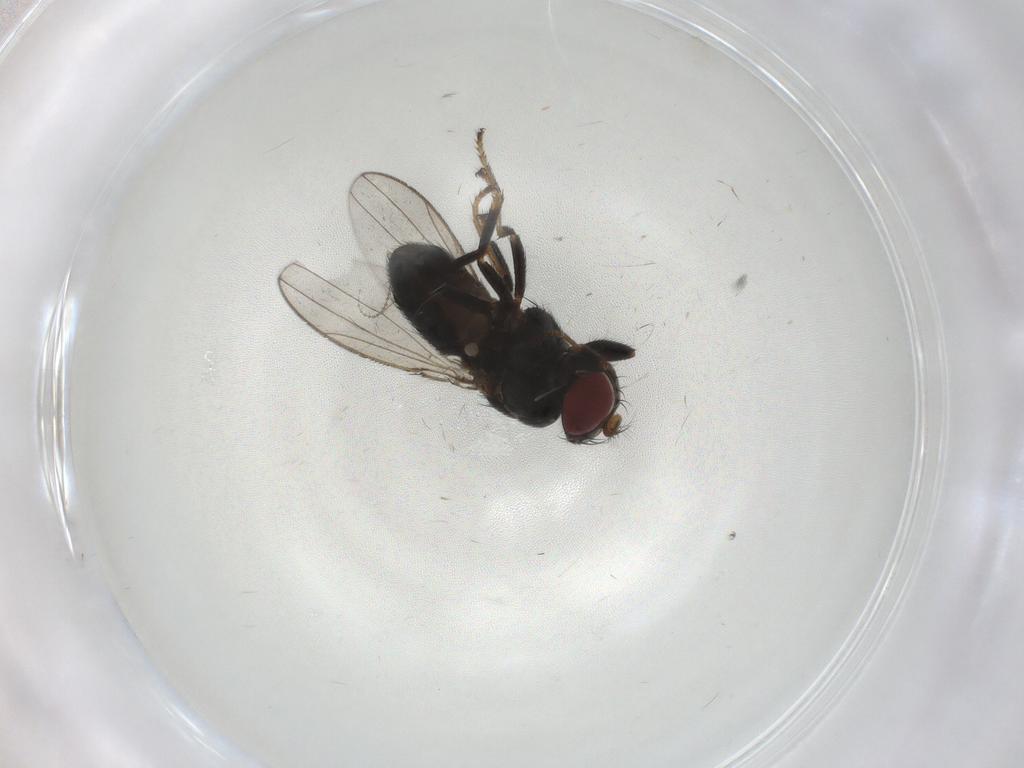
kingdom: Animalia
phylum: Arthropoda
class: Insecta
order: Diptera
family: Ephydridae
